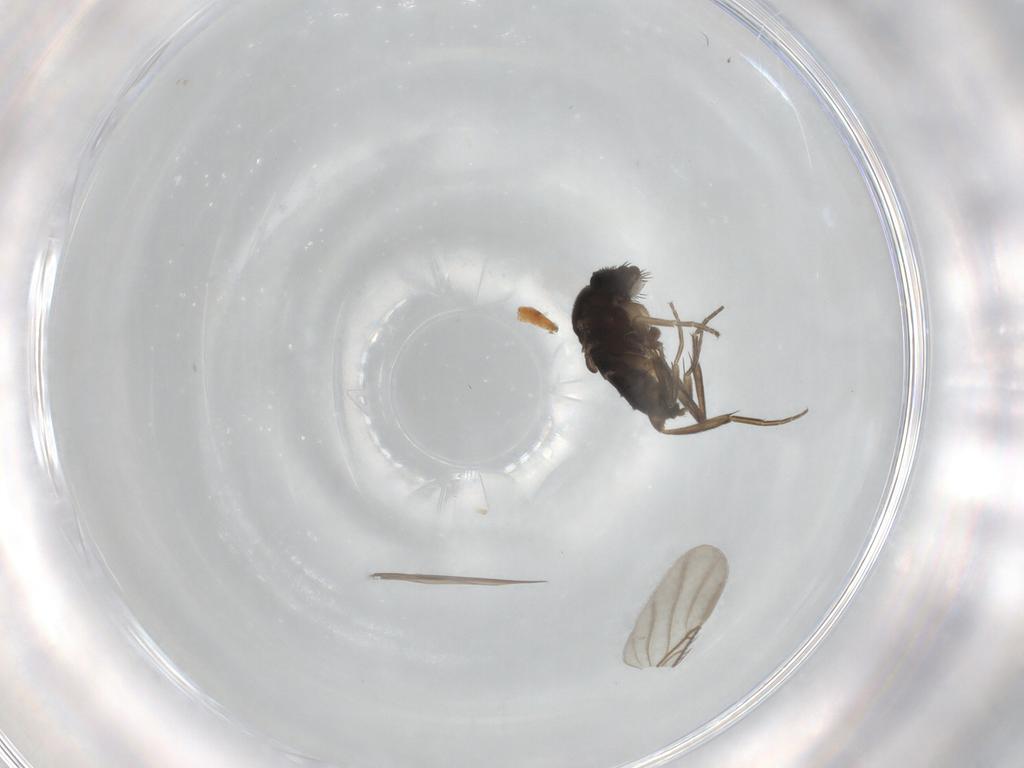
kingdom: Animalia
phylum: Arthropoda
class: Insecta
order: Diptera
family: Phoridae
